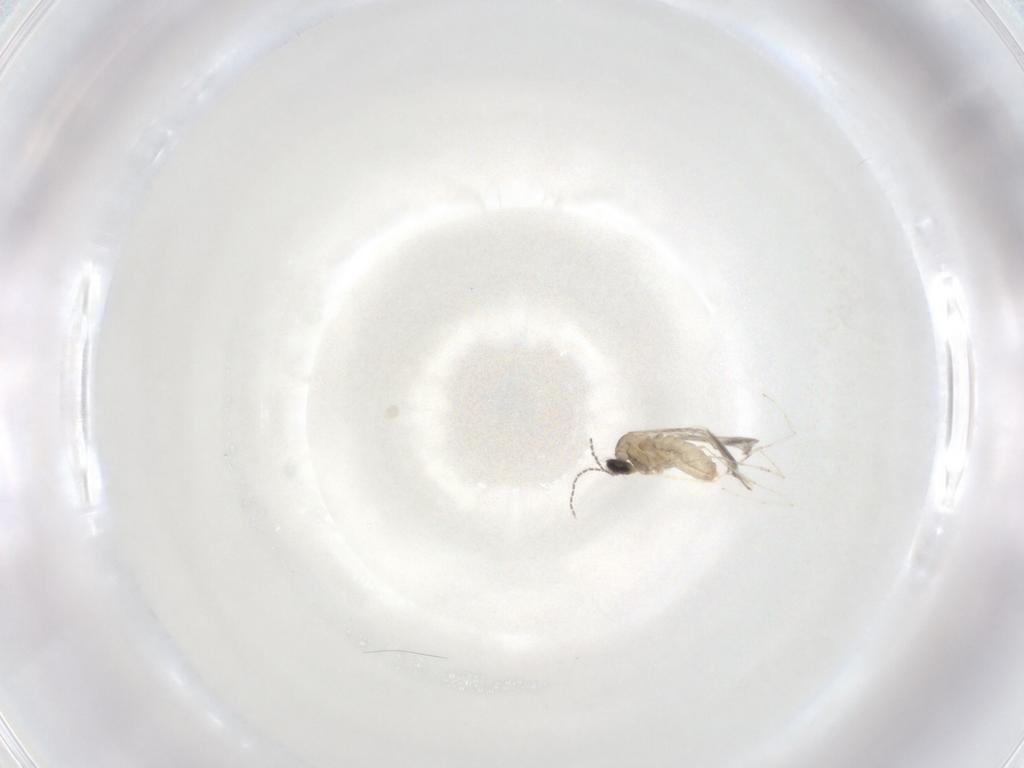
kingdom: Animalia
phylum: Arthropoda
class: Insecta
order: Diptera
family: Cecidomyiidae
